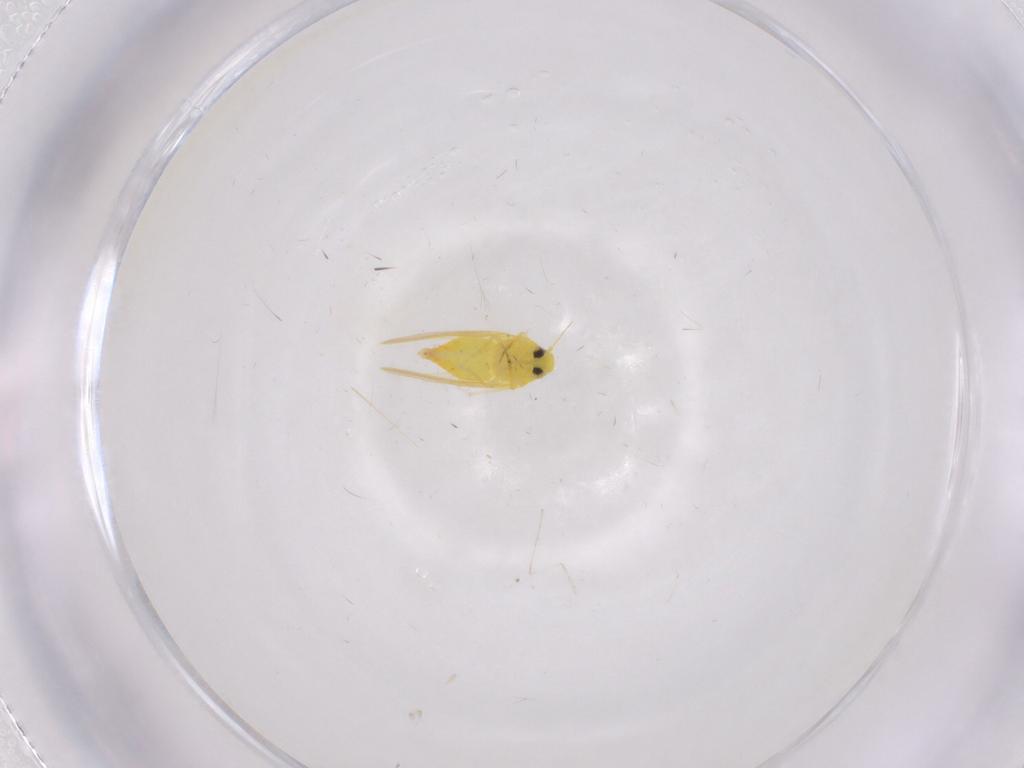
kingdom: Animalia
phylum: Arthropoda
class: Insecta
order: Hemiptera
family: Aleyrodidae
